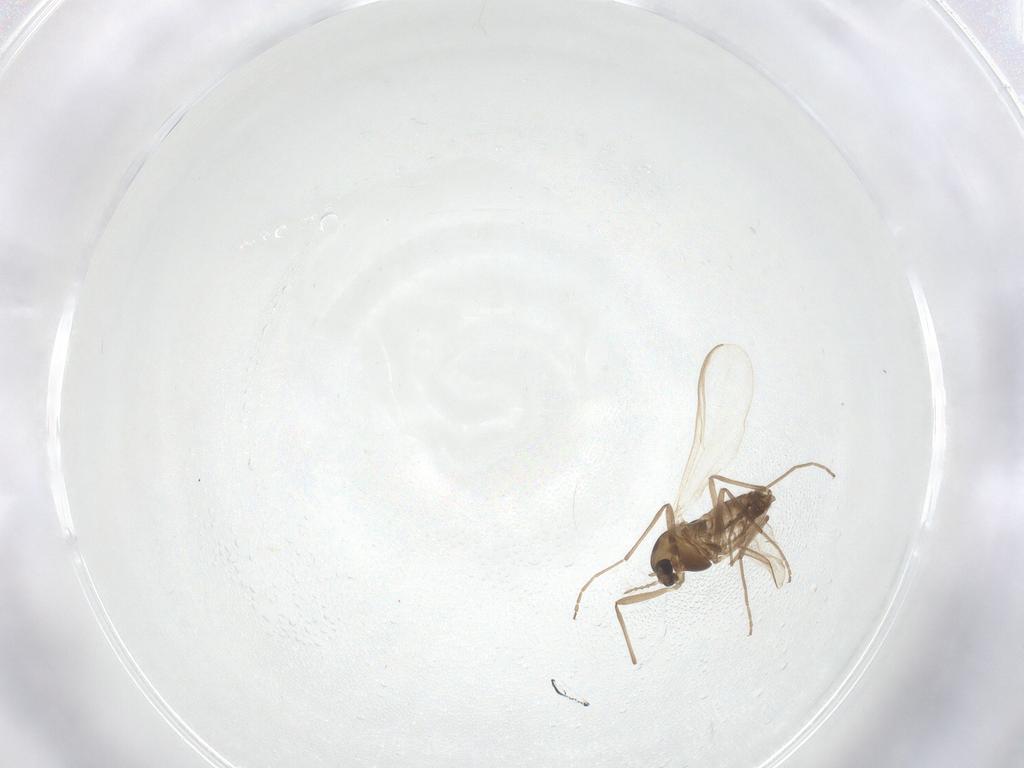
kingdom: Animalia
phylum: Arthropoda
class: Insecta
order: Diptera
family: Chironomidae
